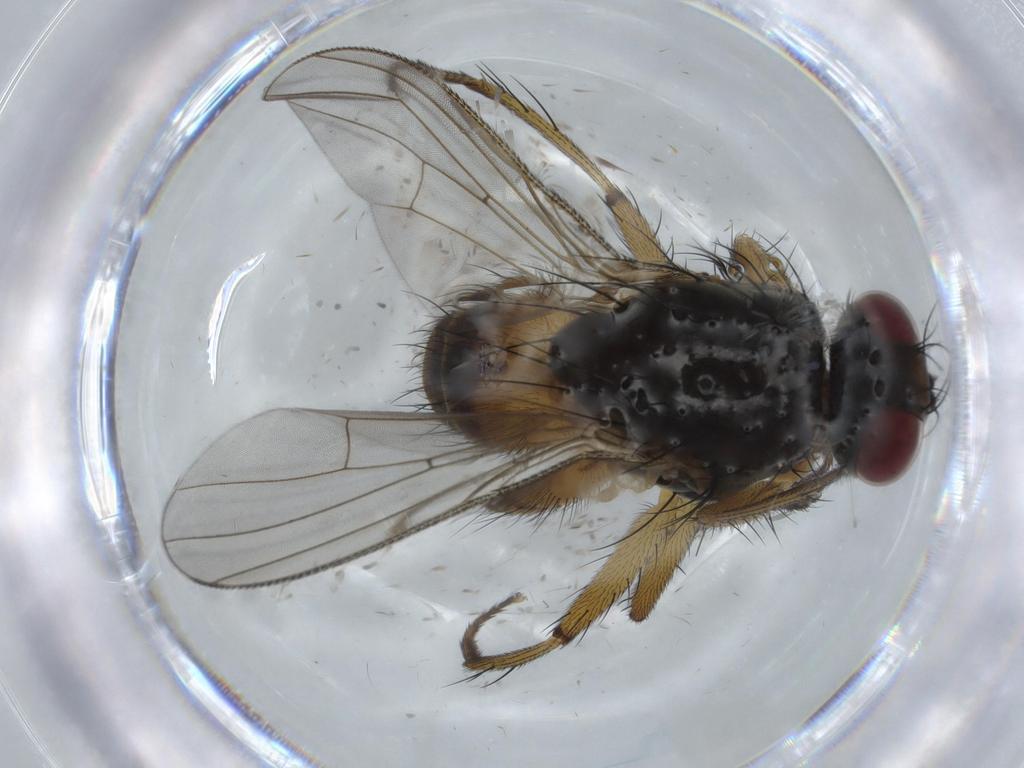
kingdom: Animalia
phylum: Arthropoda
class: Insecta
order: Diptera
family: Muscidae
